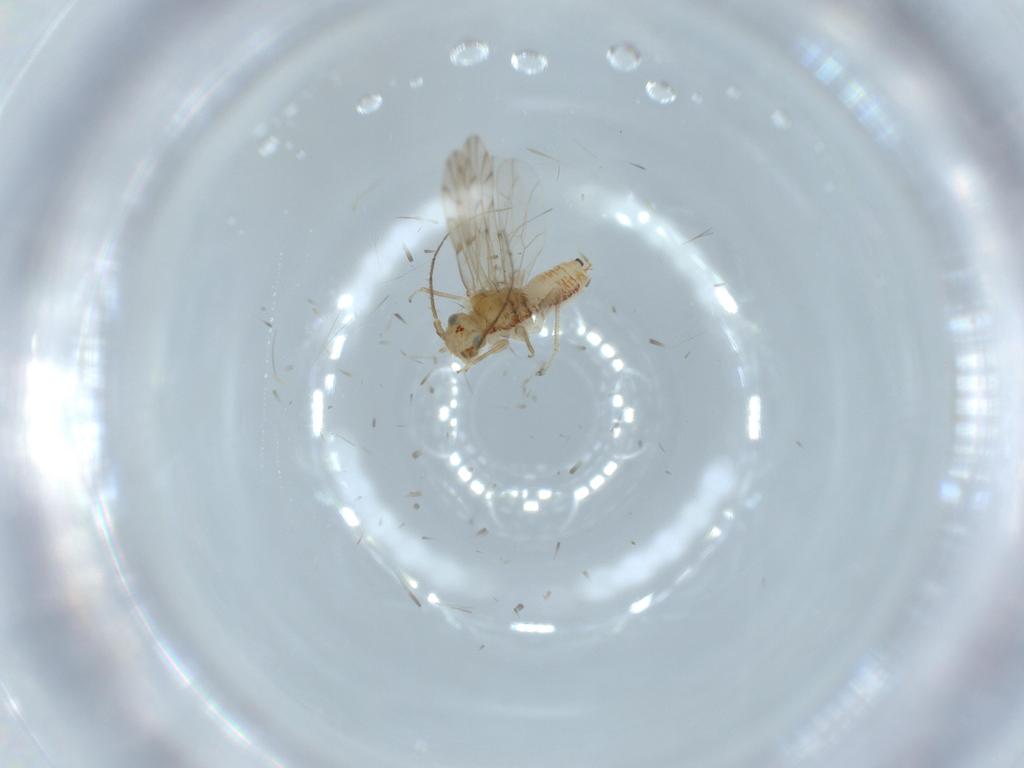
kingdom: Animalia
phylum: Arthropoda
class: Insecta
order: Psocodea
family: Ectopsocidae
